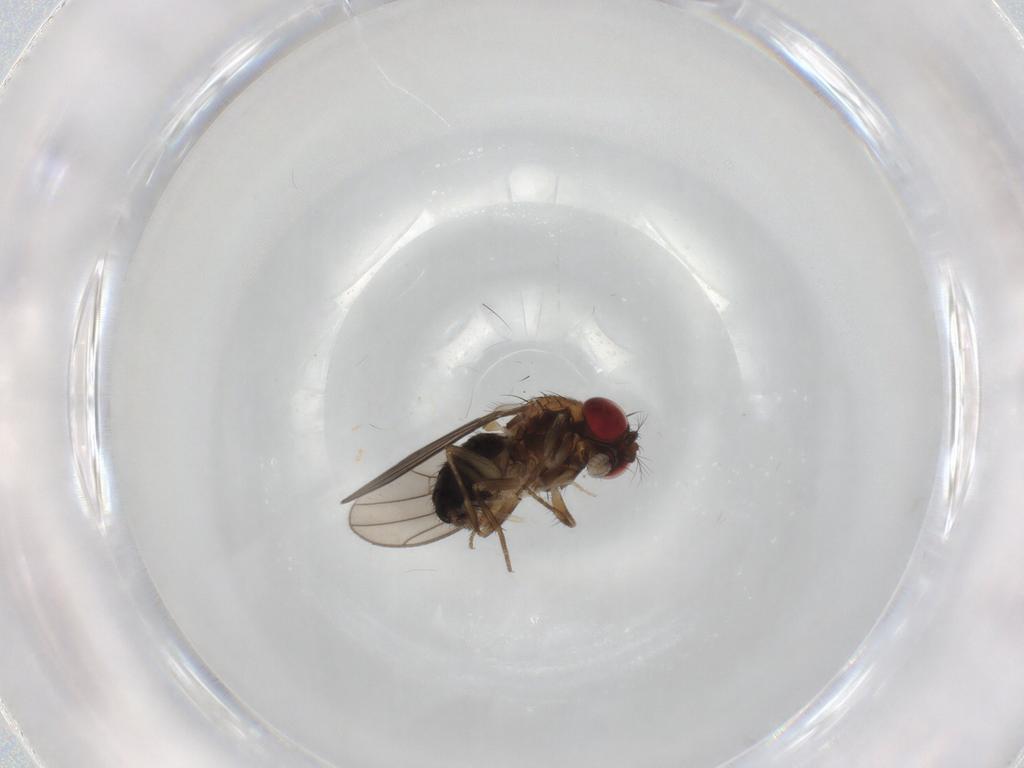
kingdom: Animalia
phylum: Arthropoda
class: Insecta
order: Diptera
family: Drosophilidae
